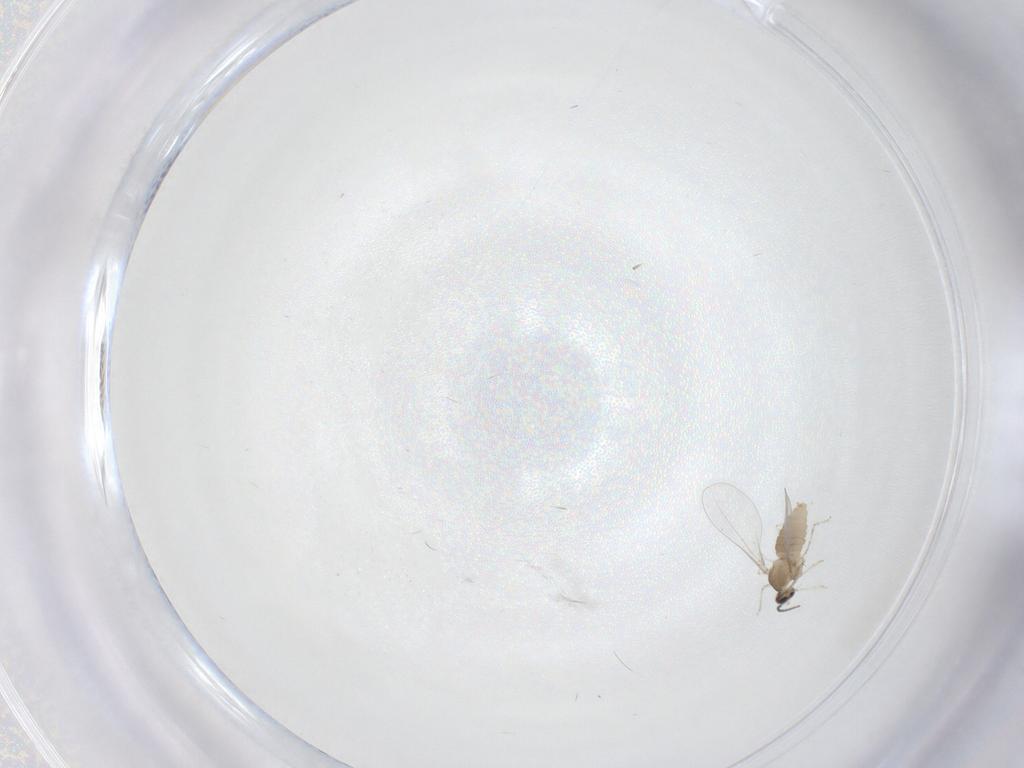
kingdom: Animalia
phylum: Arthropoda
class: Insecta
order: Diptera
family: Cecidomyiidae
